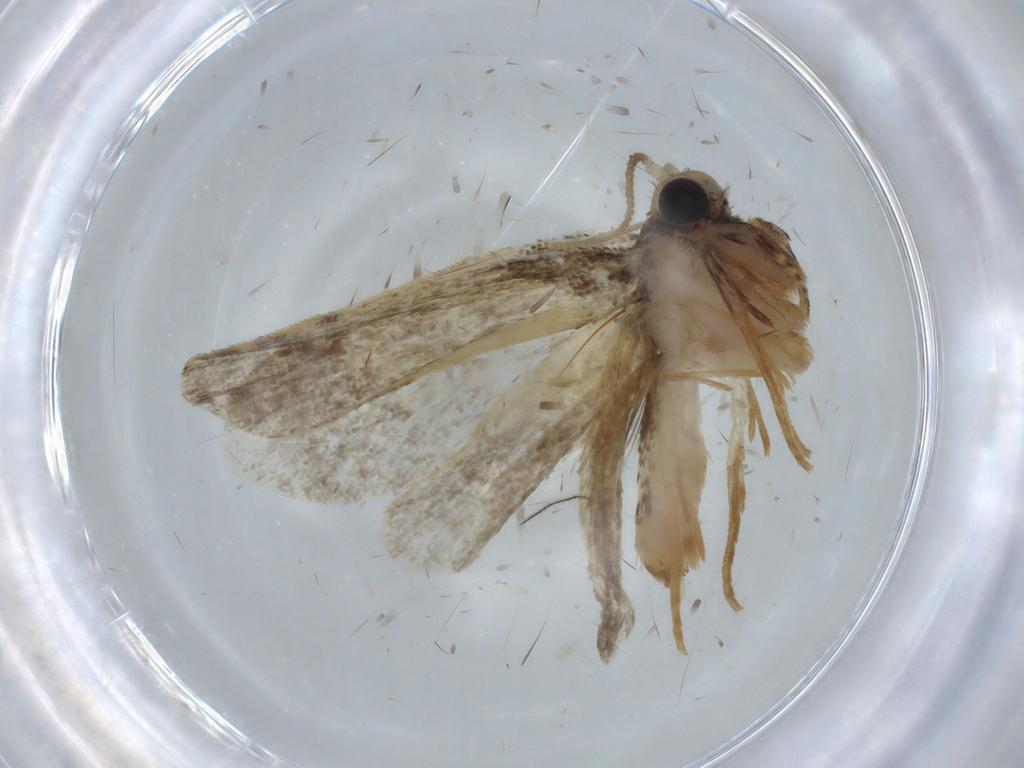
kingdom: Animalia
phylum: Arthropoda
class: Insecta
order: Lepidoptera
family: Psychidae
